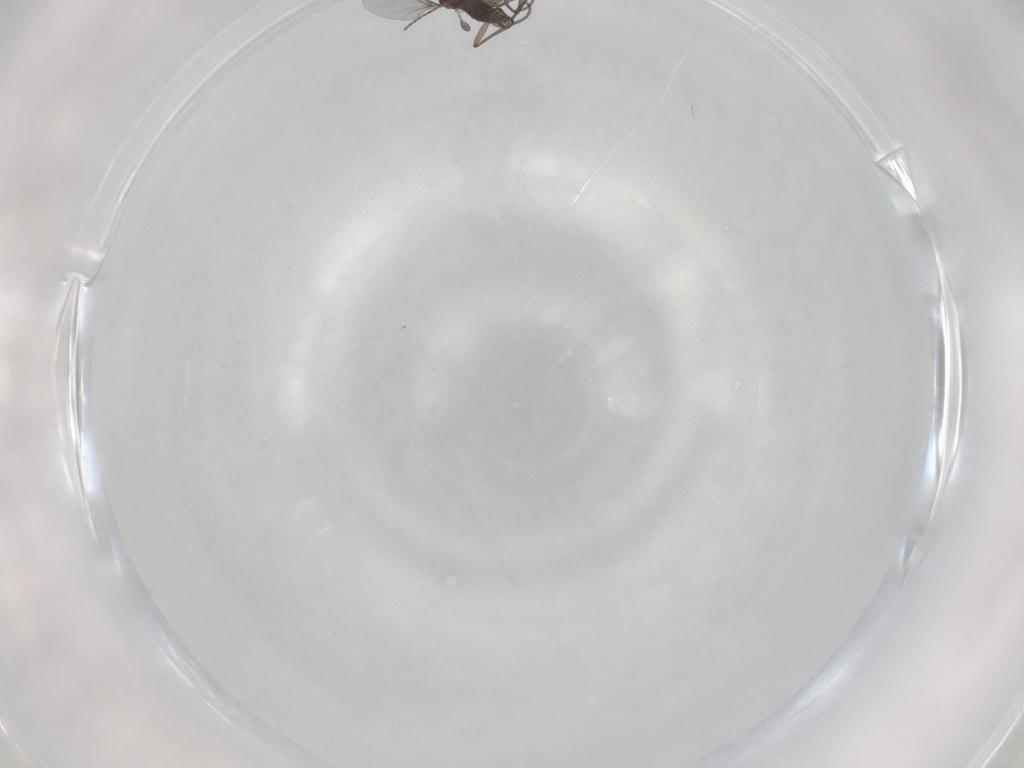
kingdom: Animalia
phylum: Arthropoda
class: Insecta
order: Diptera
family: Sciaridae
